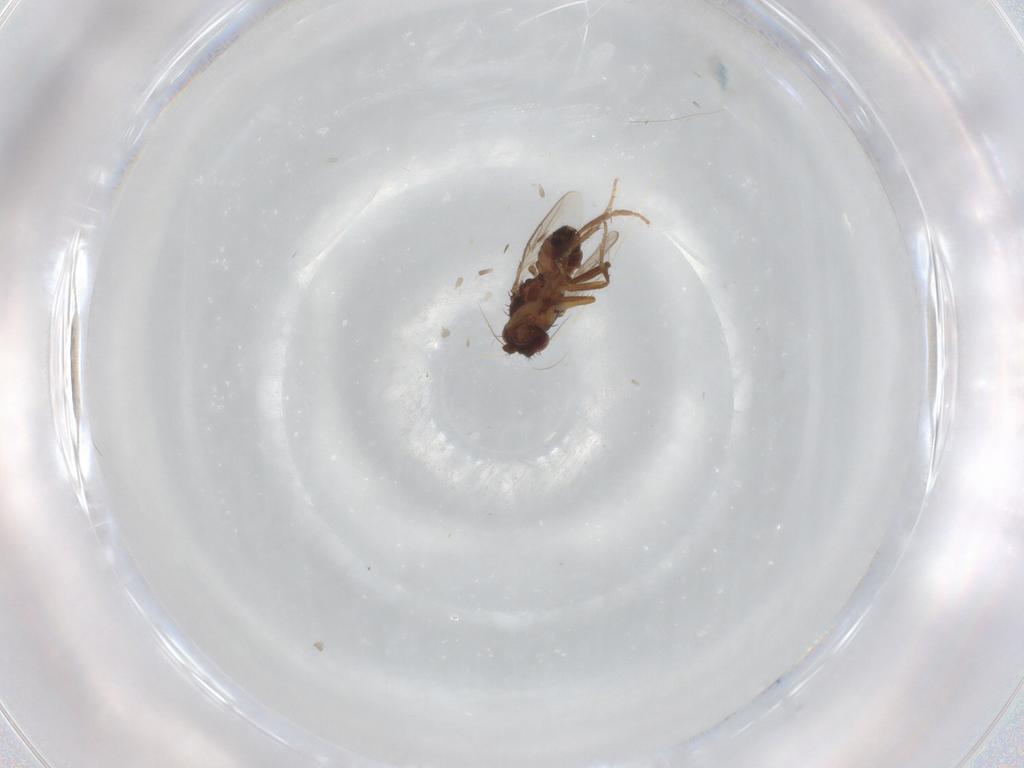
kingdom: Animalia
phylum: Arthropoda
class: Insecta
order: Diptera
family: Sphaeroceridae
